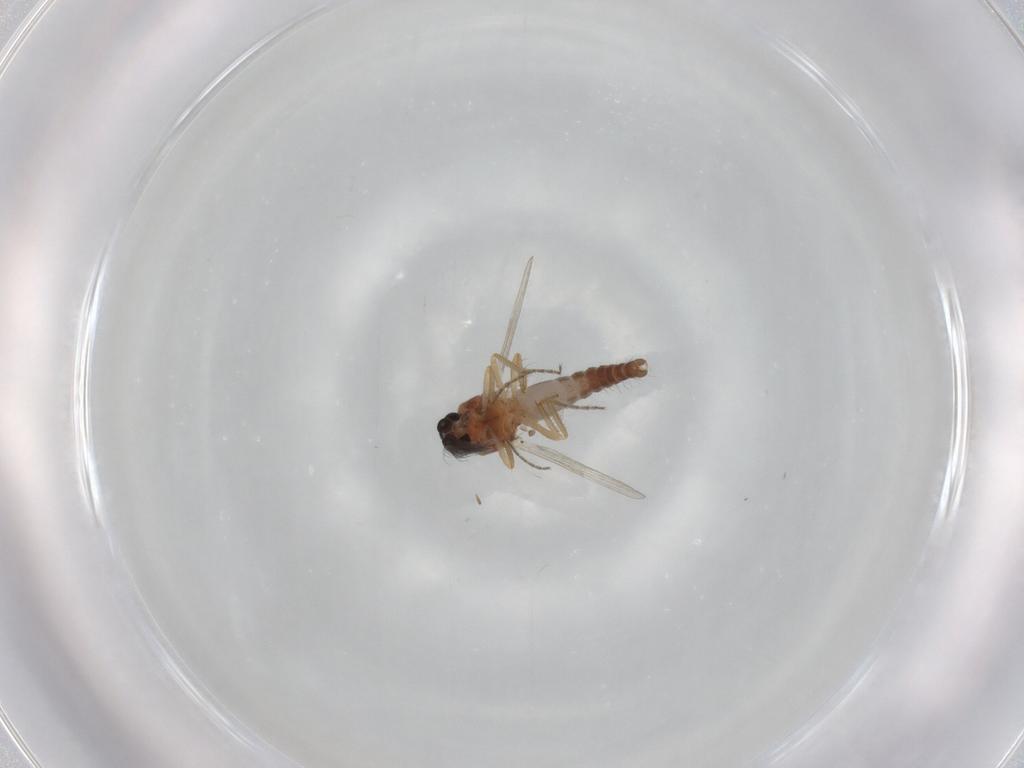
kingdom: Animalia
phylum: Arthropoda
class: Insecta
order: Diptera
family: Ceratopogonidae
